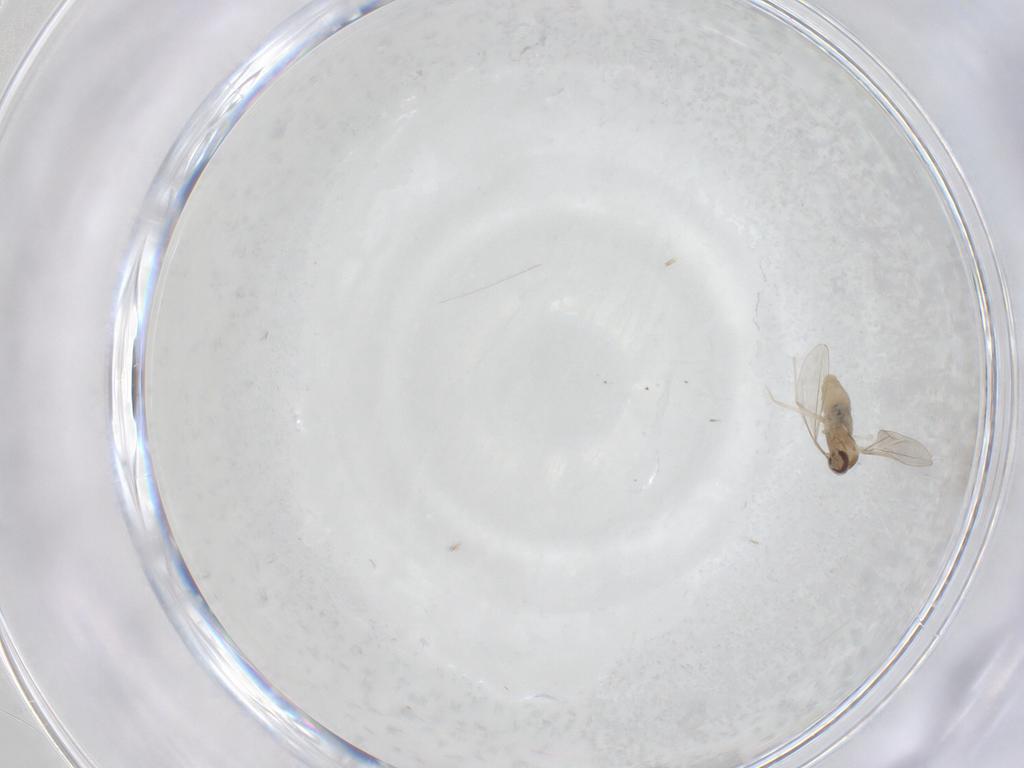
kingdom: Animalia
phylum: Arthropoda
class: Insecta
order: Diptera
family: Cecidomyiidae
